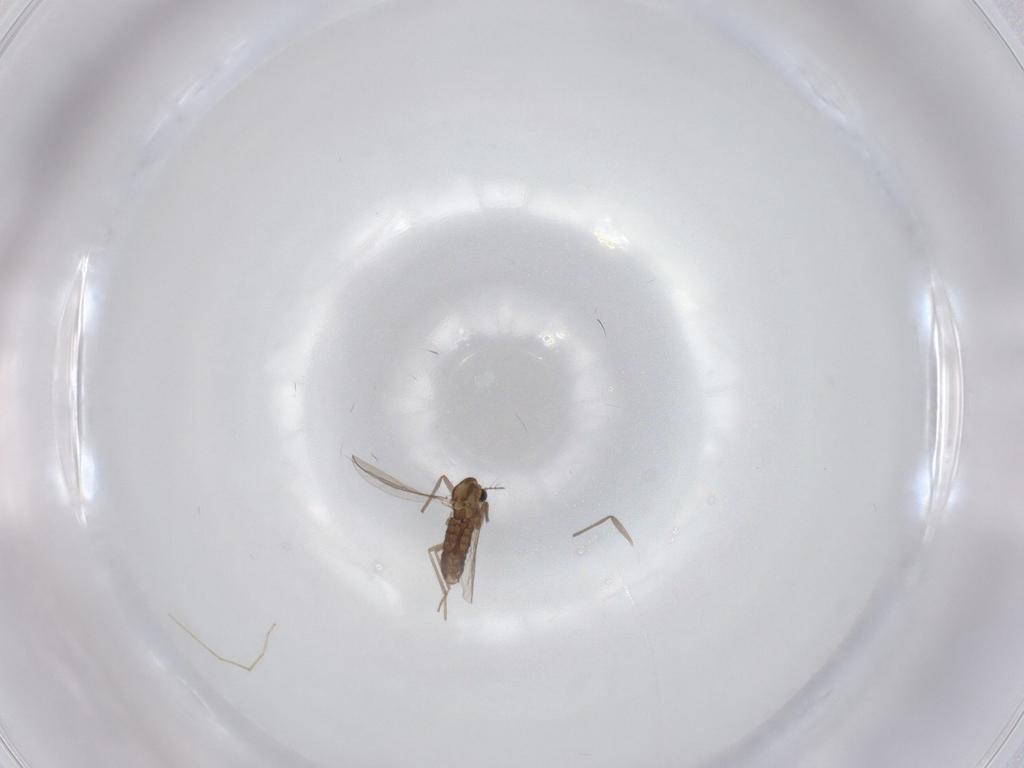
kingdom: Animalia
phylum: Arthropoda
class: Insecta
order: Diptera
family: Chironomidae
